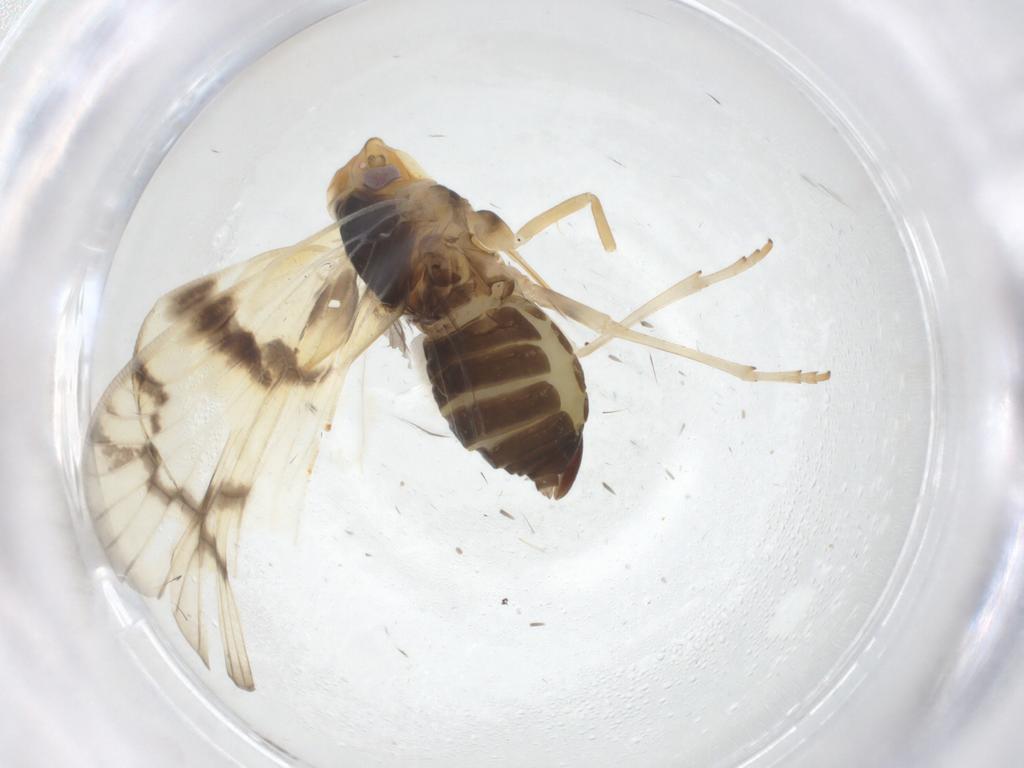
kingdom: Animalia
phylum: Arthropoda
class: Insecta
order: Hemiptera
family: Cixiidae
